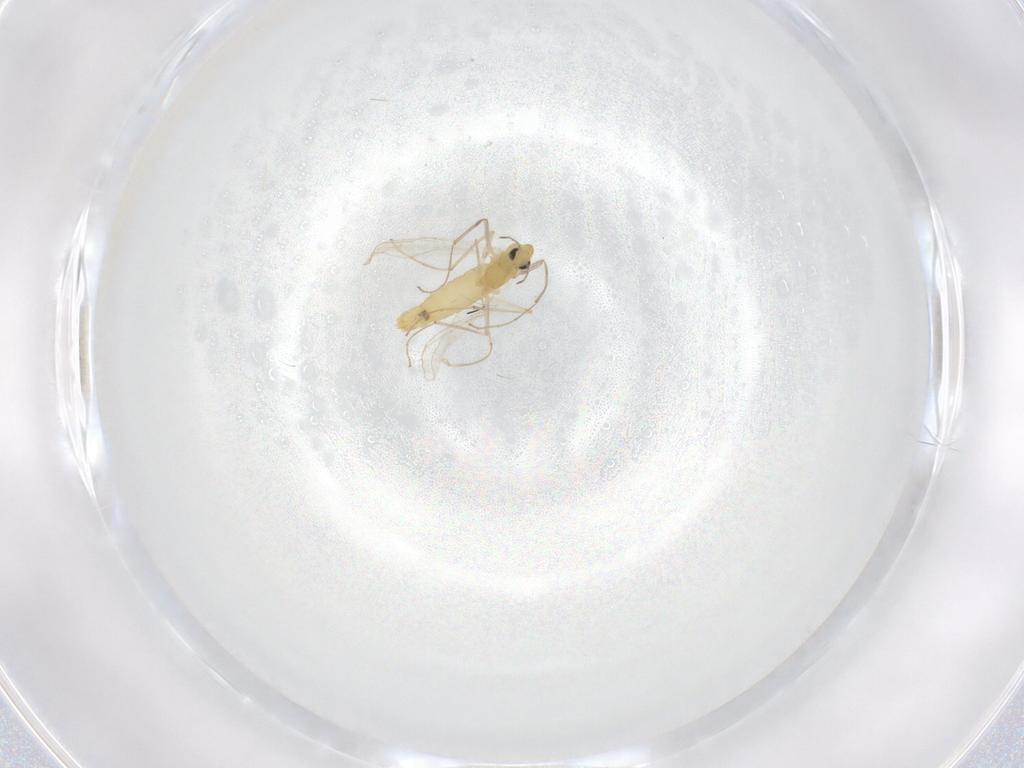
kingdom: Animalia
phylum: Arthropoda
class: Insecta
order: Diptera
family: Chironomidae
